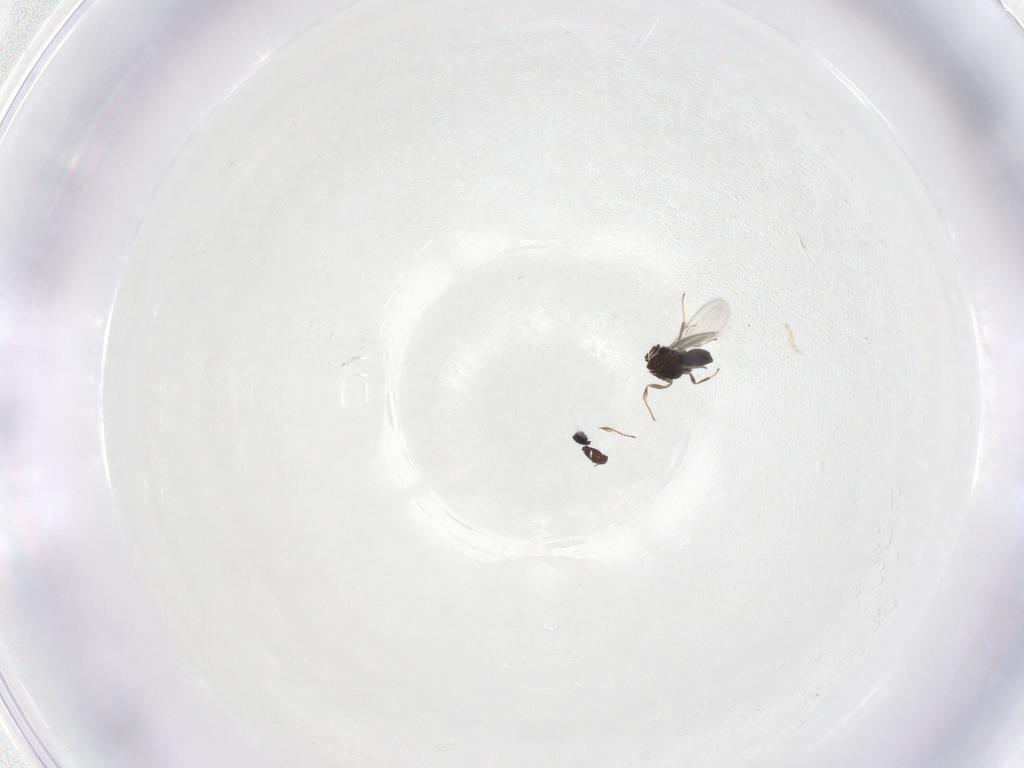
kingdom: Animalia
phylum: Arthropoda
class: Insecta
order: Hymenoptera
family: Scelionidae
